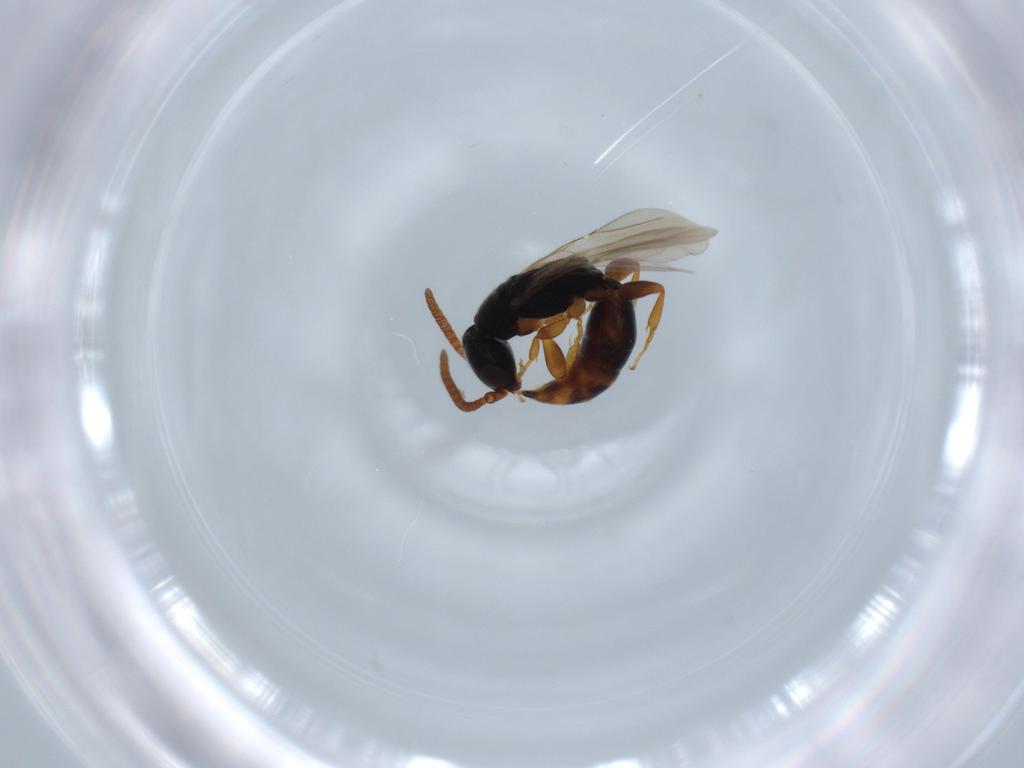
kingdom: Animalia
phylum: Arthropoda
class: Insecta
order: Hymenoptera
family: Bethylidae
